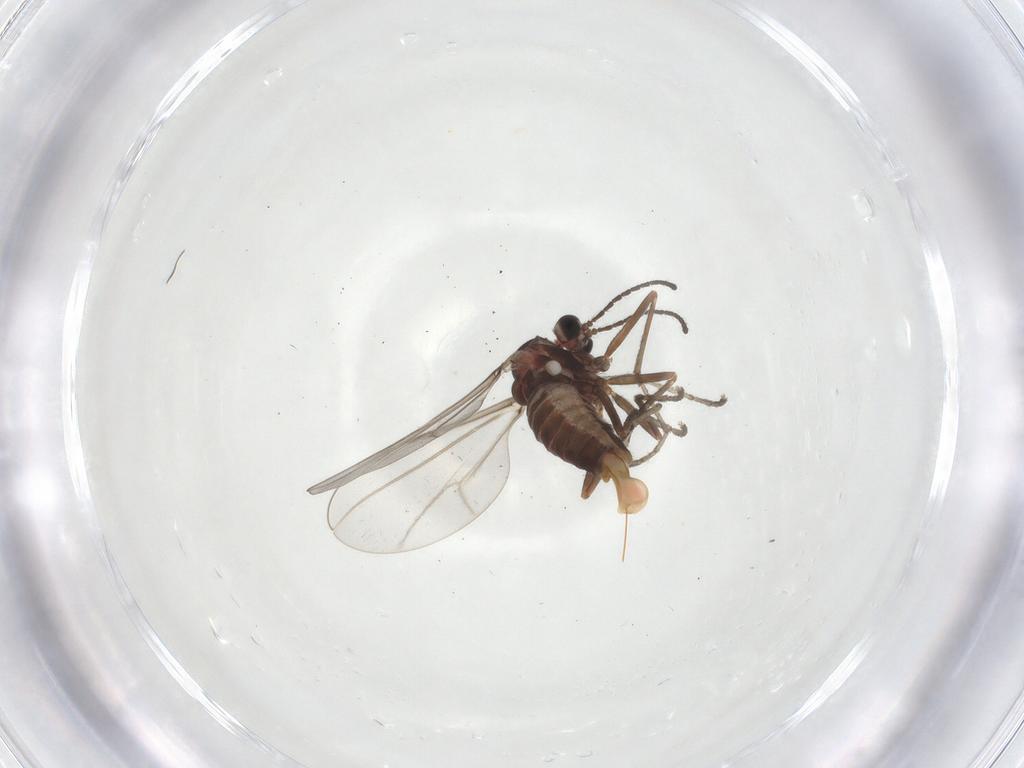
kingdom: Animalia
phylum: Arthropoda
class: Insecta
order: Diptera
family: Cecidomyiidae
